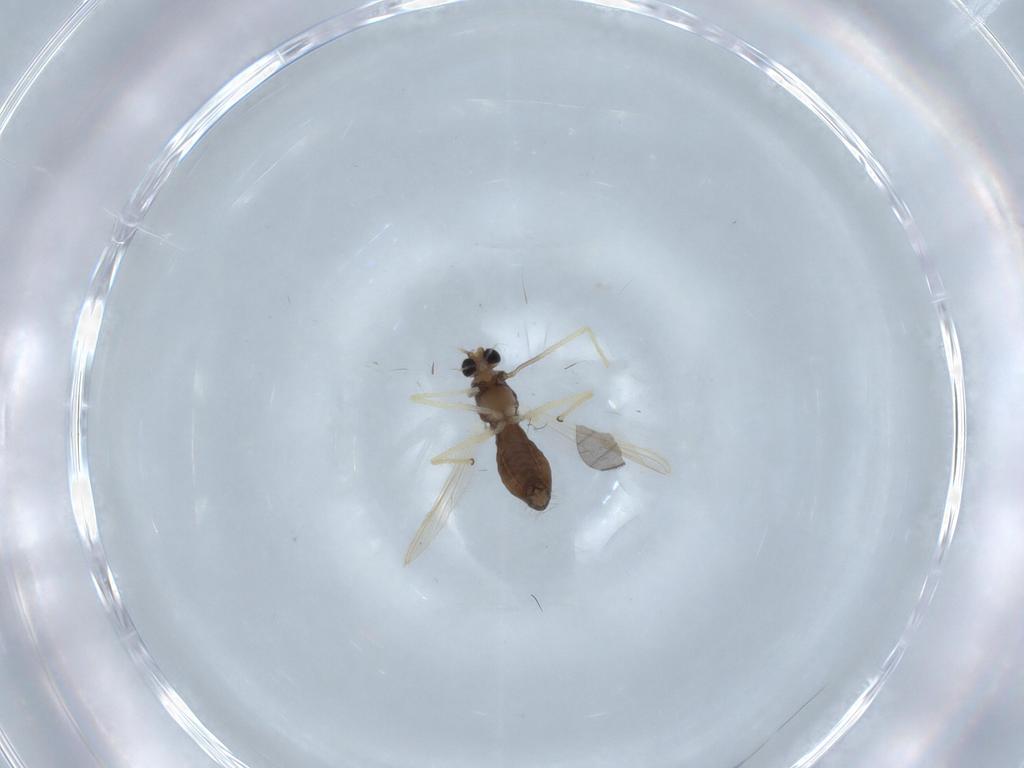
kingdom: Animalia
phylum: Arthropoda
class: Insecta
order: Diptera
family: Chironomidae
